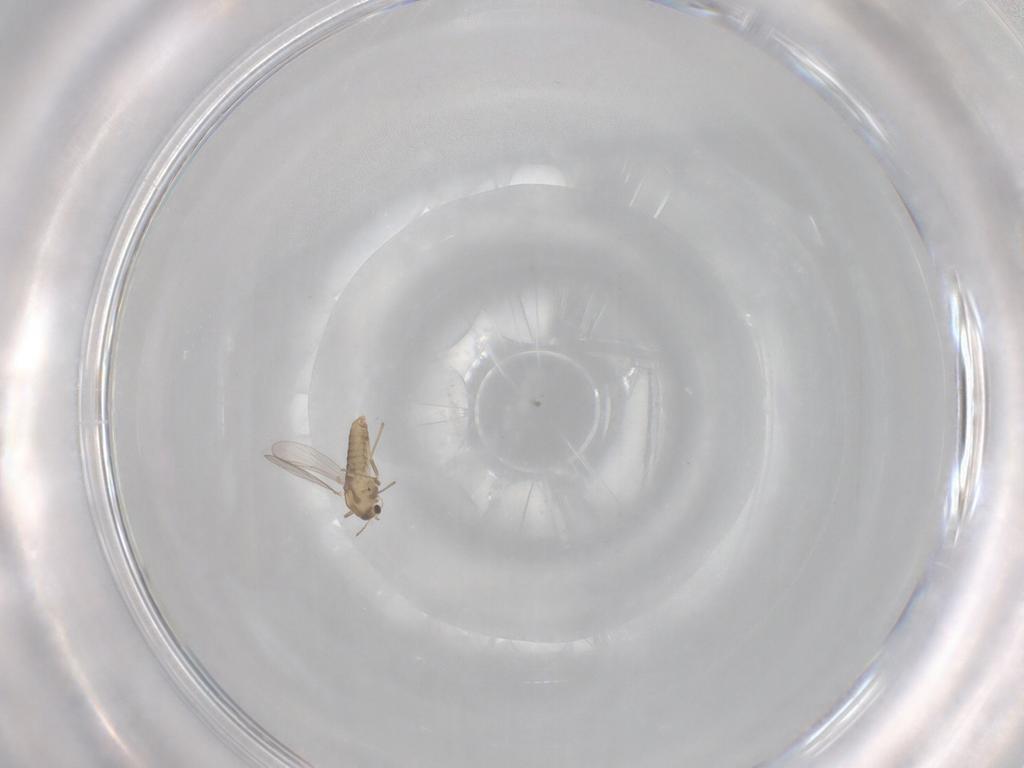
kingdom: Animalia
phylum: Arthropoda
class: Insecta
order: Diptera
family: Chironomidae
